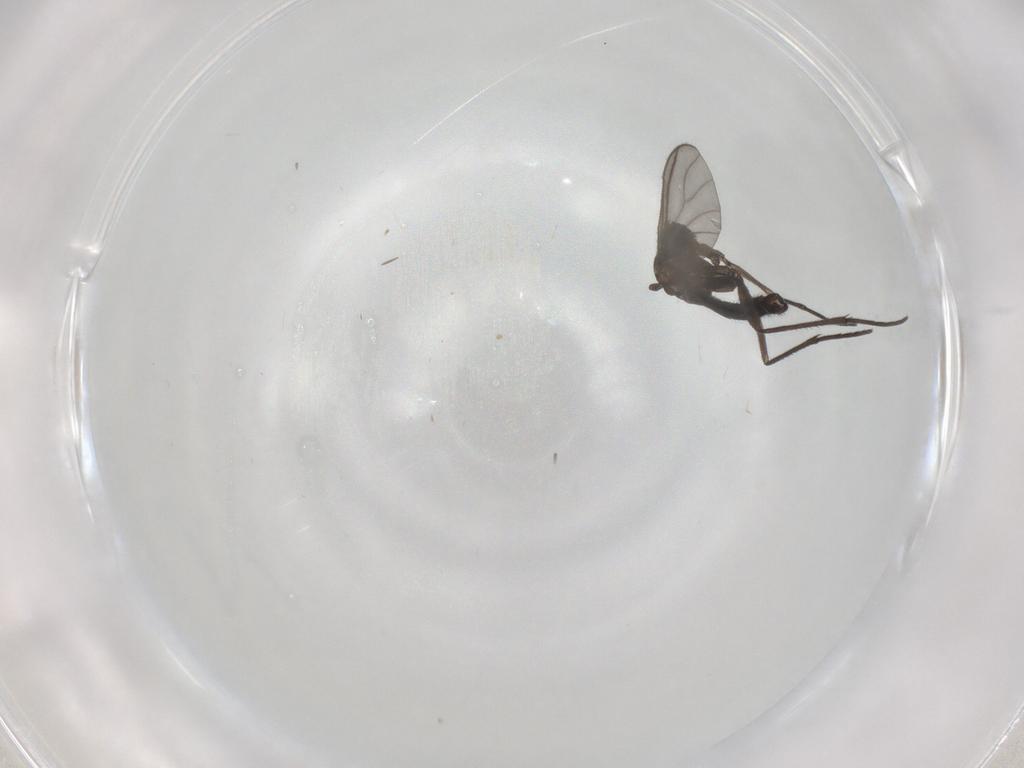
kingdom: Animalia
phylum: Arthropoda
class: Insecta
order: Diptera
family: Sciaridae
